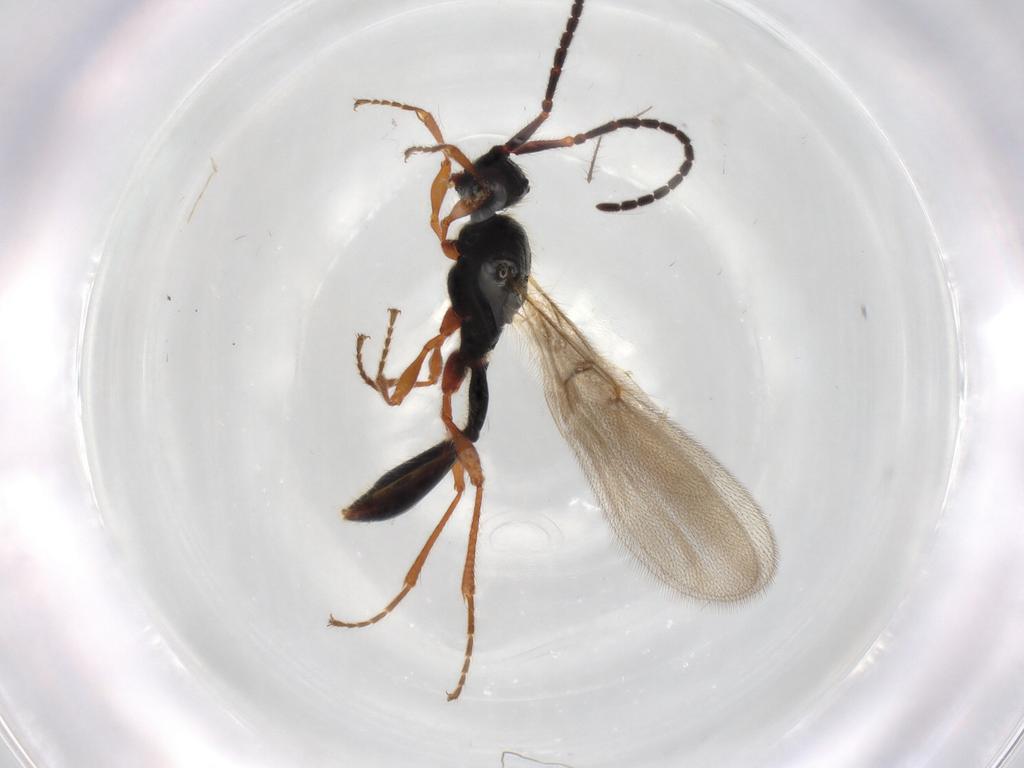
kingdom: Animalia
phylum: Arthropoda
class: Insecta
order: Hymenoptera
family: Diapriidae
